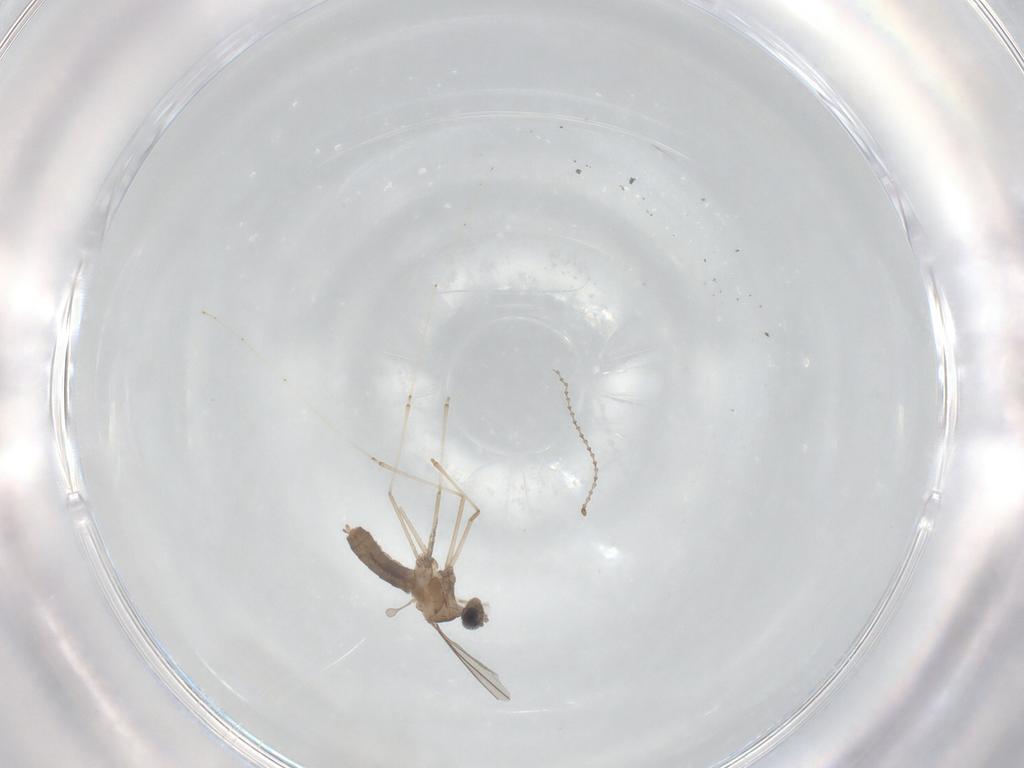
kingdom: Animalia
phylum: Arthropoda
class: Insecta
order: Diptera
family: Cecidomyiidae
